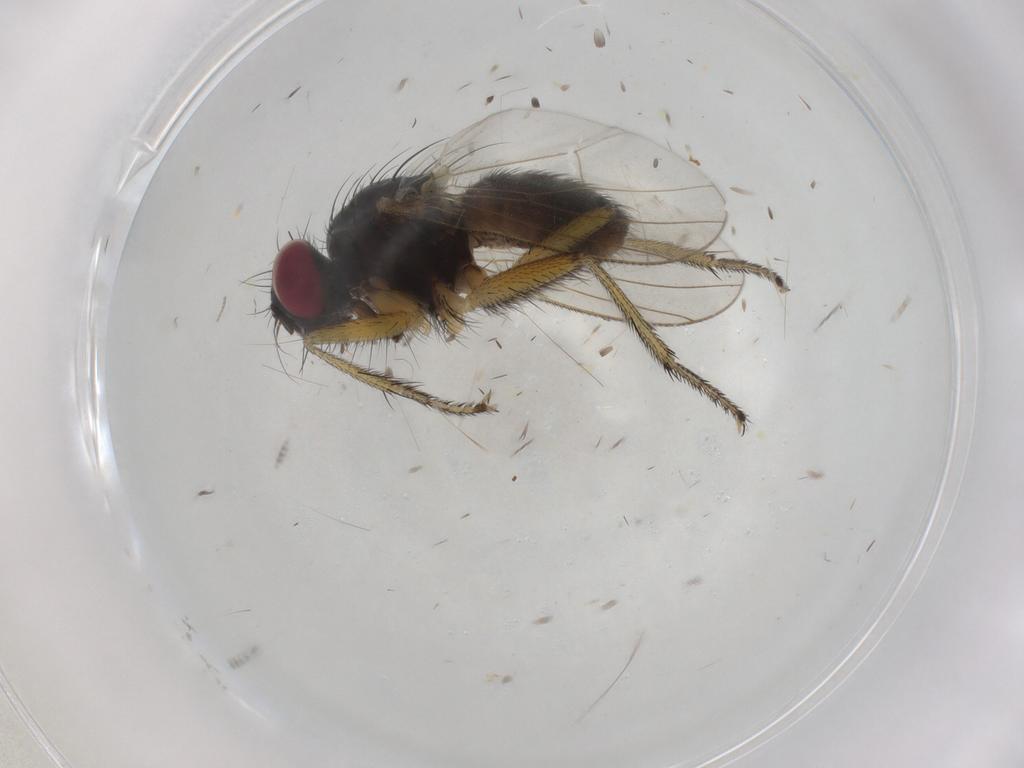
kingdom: Animalia
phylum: Arthropoda
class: Insecta
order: Diptera
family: Muscidae
